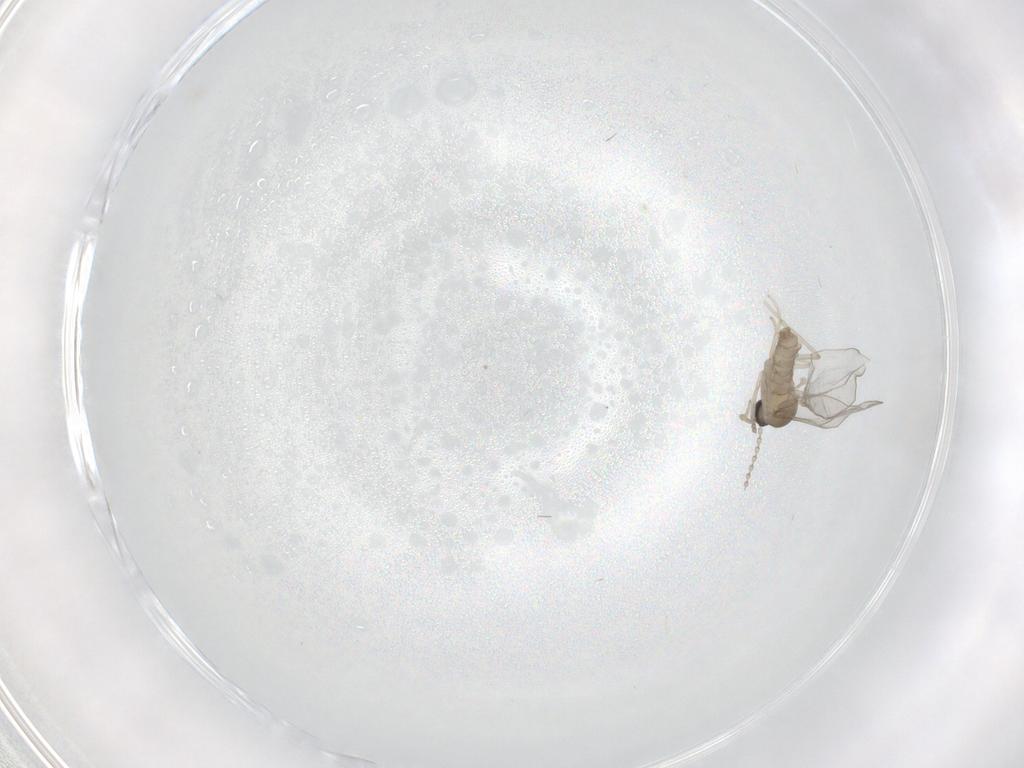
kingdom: Animalia
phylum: Arthropoda
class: Insecta
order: Diptera
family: Cecidomyiidae
